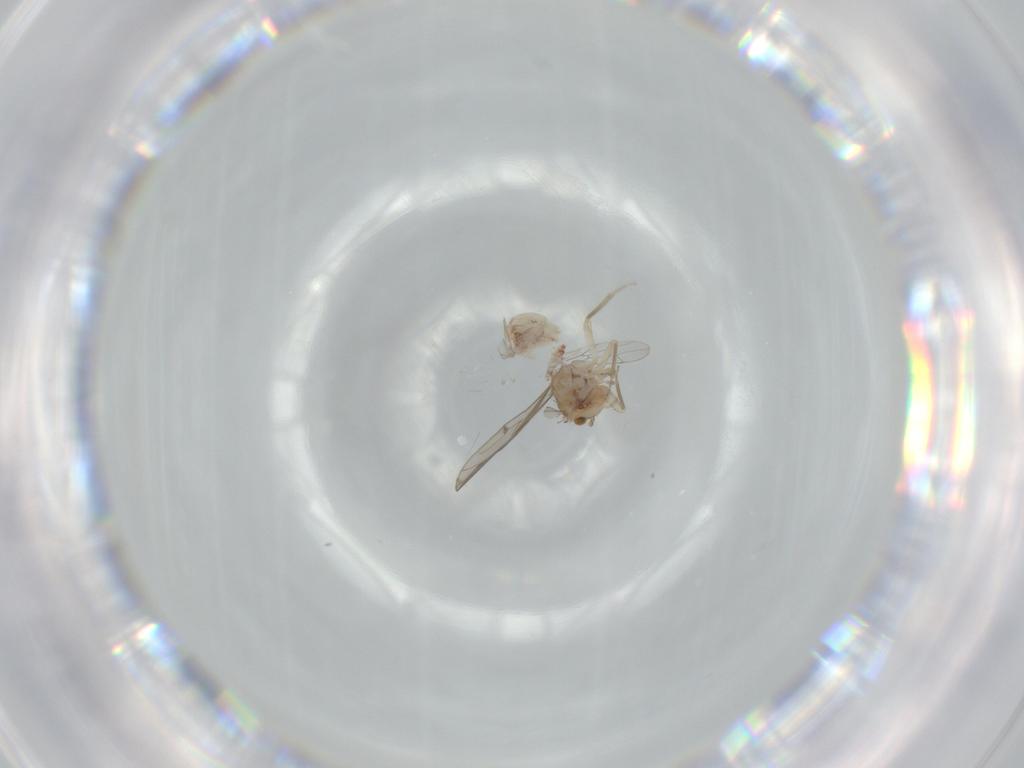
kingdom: Animalia
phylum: Arthropoda
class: Insecta
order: Psocodea
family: Ectopsocidae
